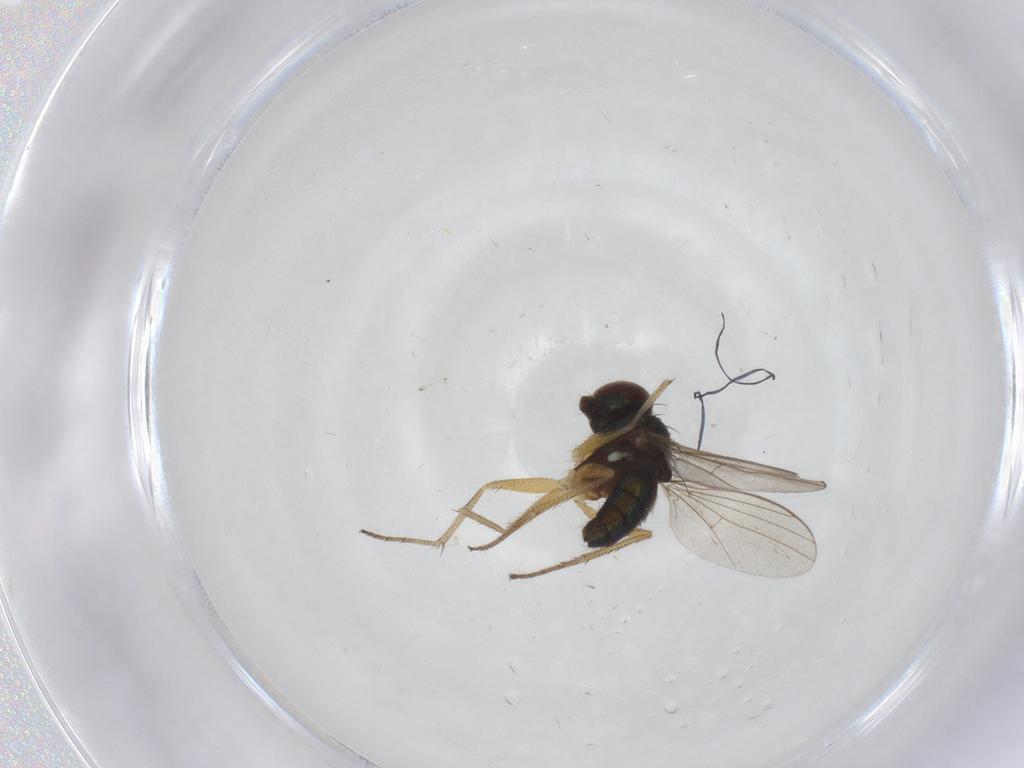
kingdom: Animalia
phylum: Arthropoda
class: Insecta
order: Diptera
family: Ceratopogonidae
